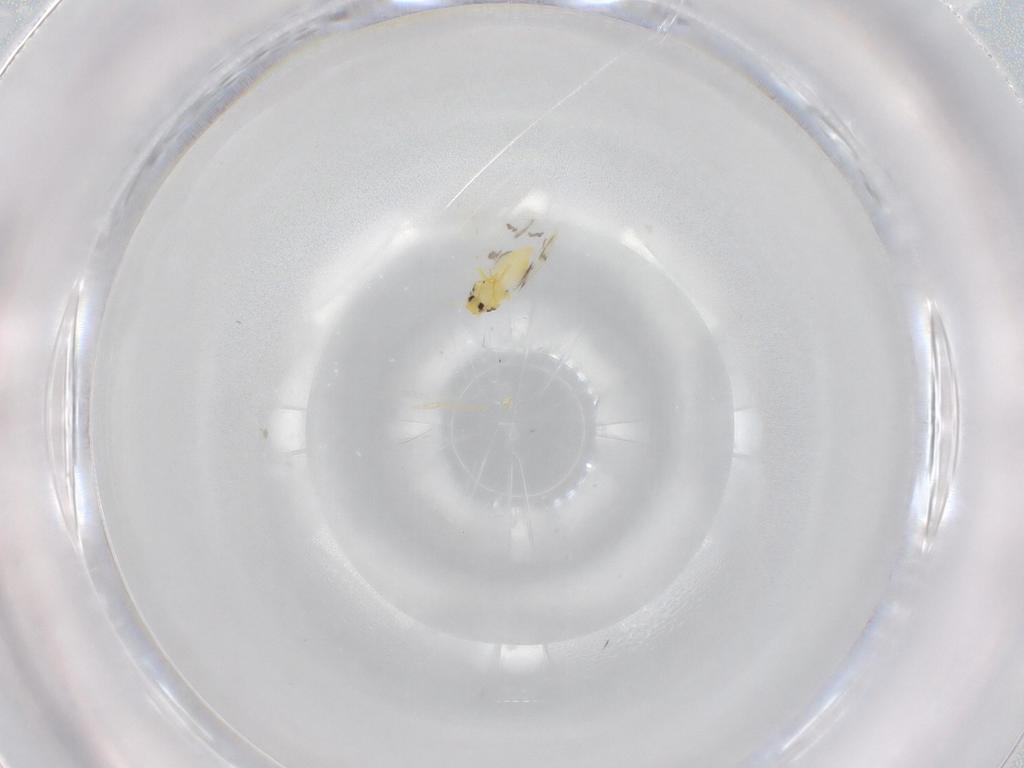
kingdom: Animalia
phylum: Arthropoda
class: Insecta
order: Hemiptera
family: Aleyrodidae
